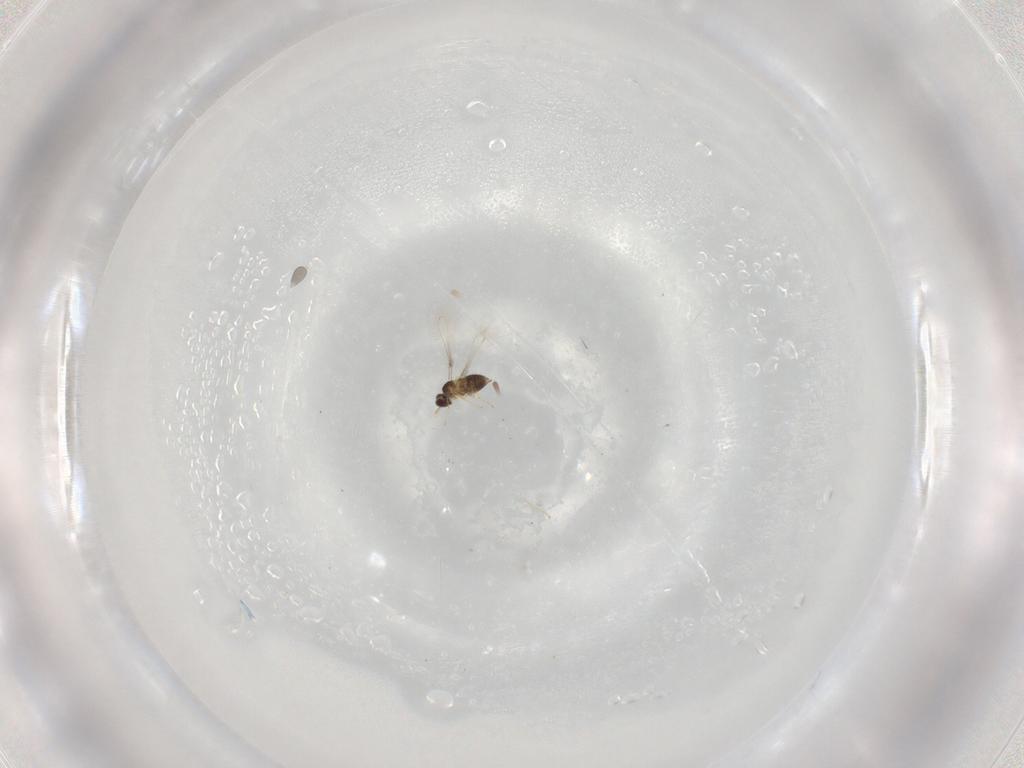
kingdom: Animalia
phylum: Arthropoda
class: Insecta
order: Hymenoptera
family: Mymaridae
